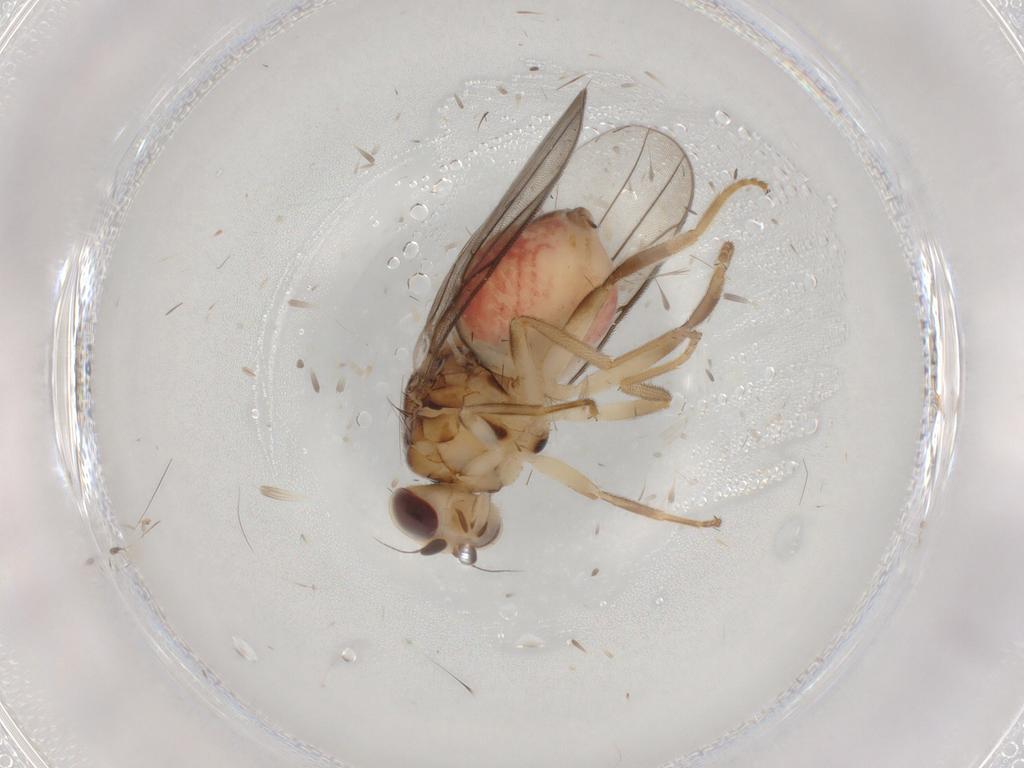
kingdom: Animalia
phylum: Arthropoda
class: Insecta
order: Diptera
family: Chloropidae
